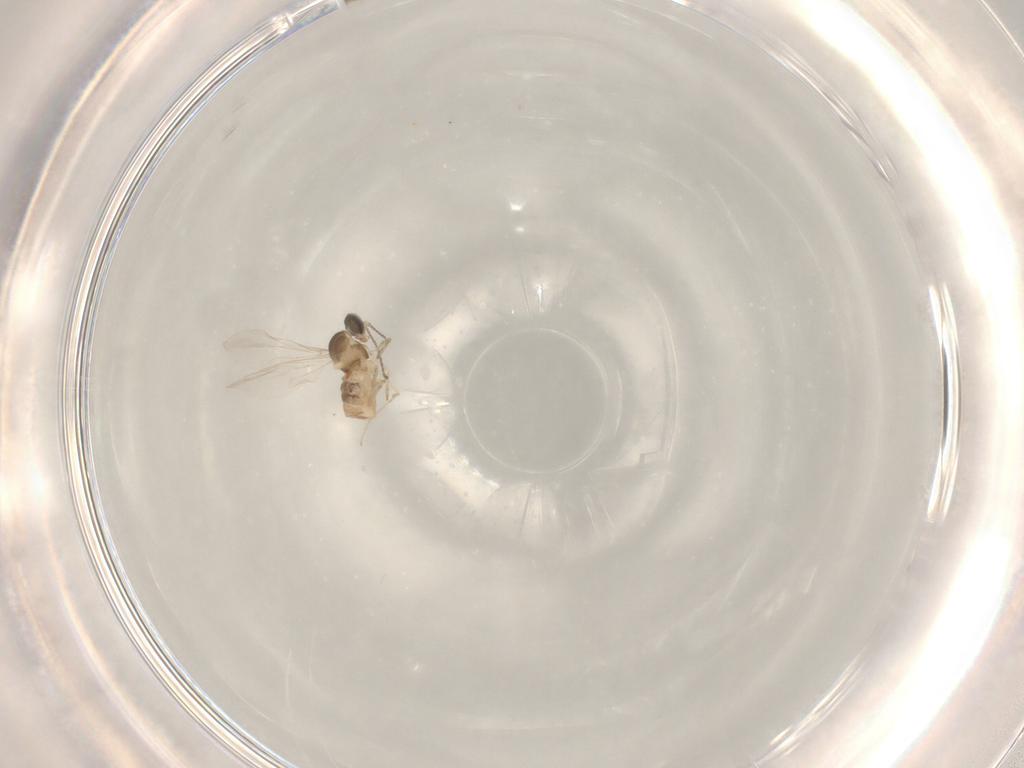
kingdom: Animalia
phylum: Arthropoda
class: Insecta
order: Diptera
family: Cecidomyiidae
